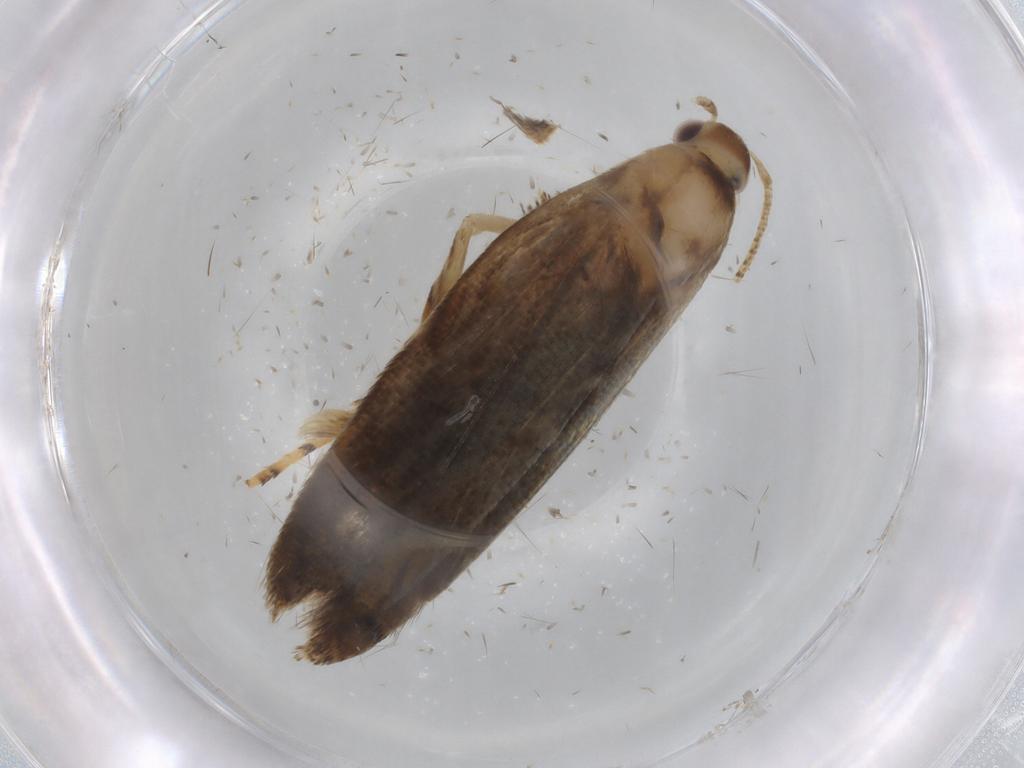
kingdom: Animalia
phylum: Arthropoda
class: Insecta
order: Lepidoptera
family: Gelechiidae
